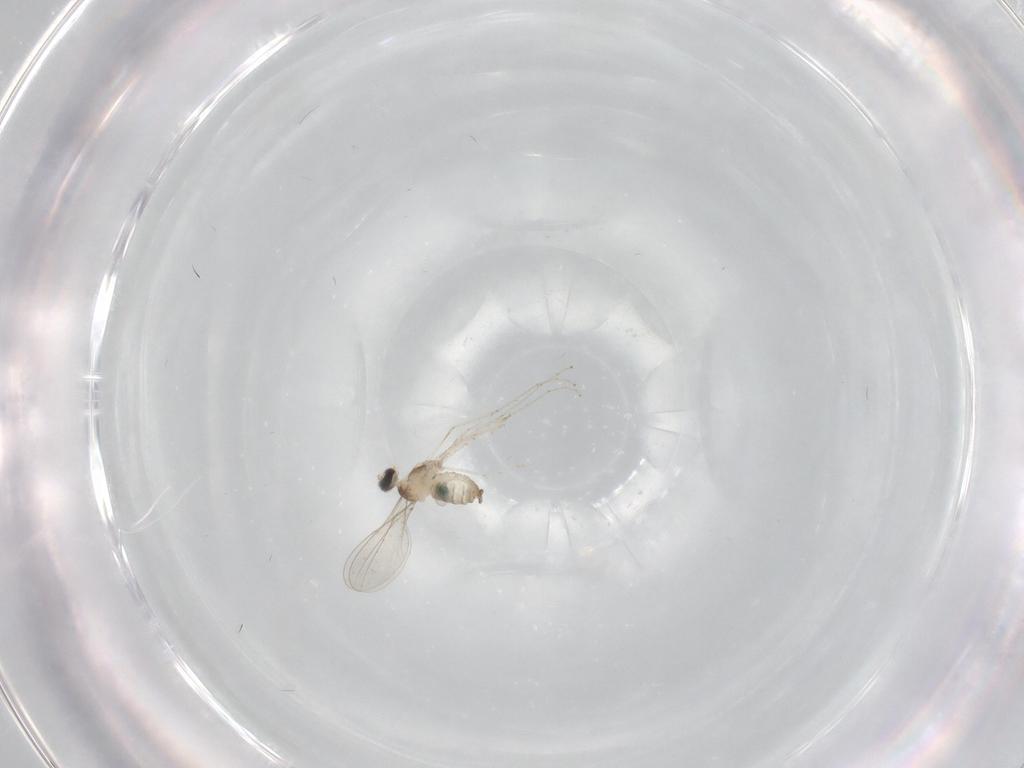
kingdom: Animalia
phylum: Arthropoda
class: Insecta
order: Diptera
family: Cecidomyiidae
